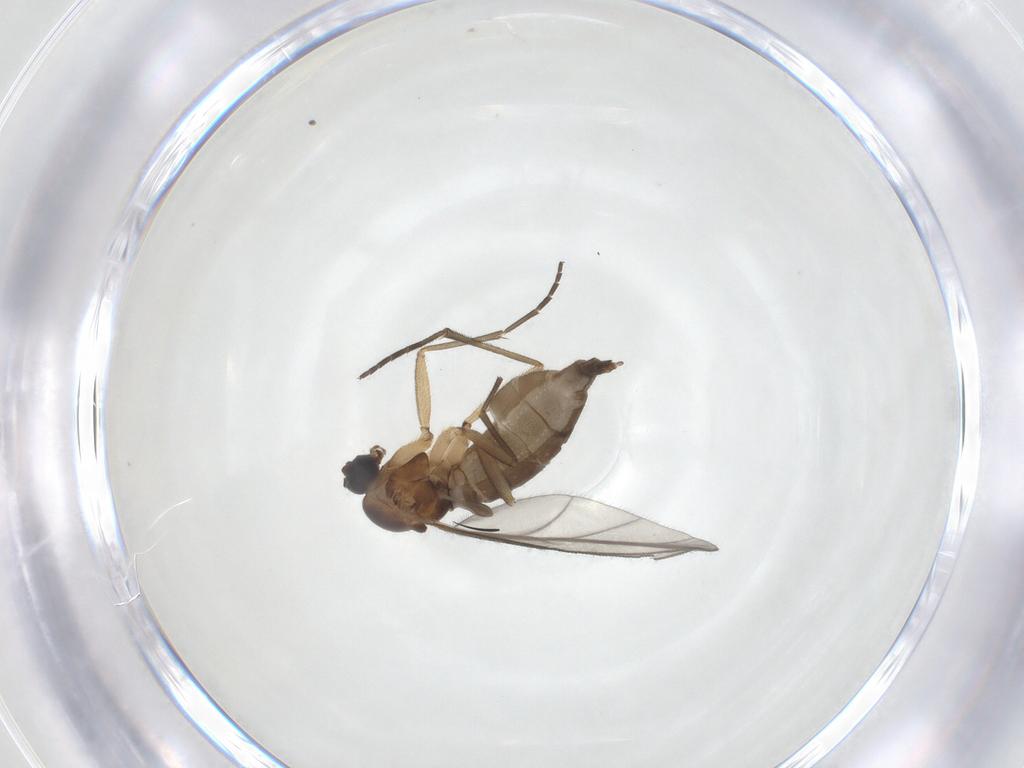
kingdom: Animalia
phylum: Arthropoda
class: Insecta
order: Diptera
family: Sciaridae
